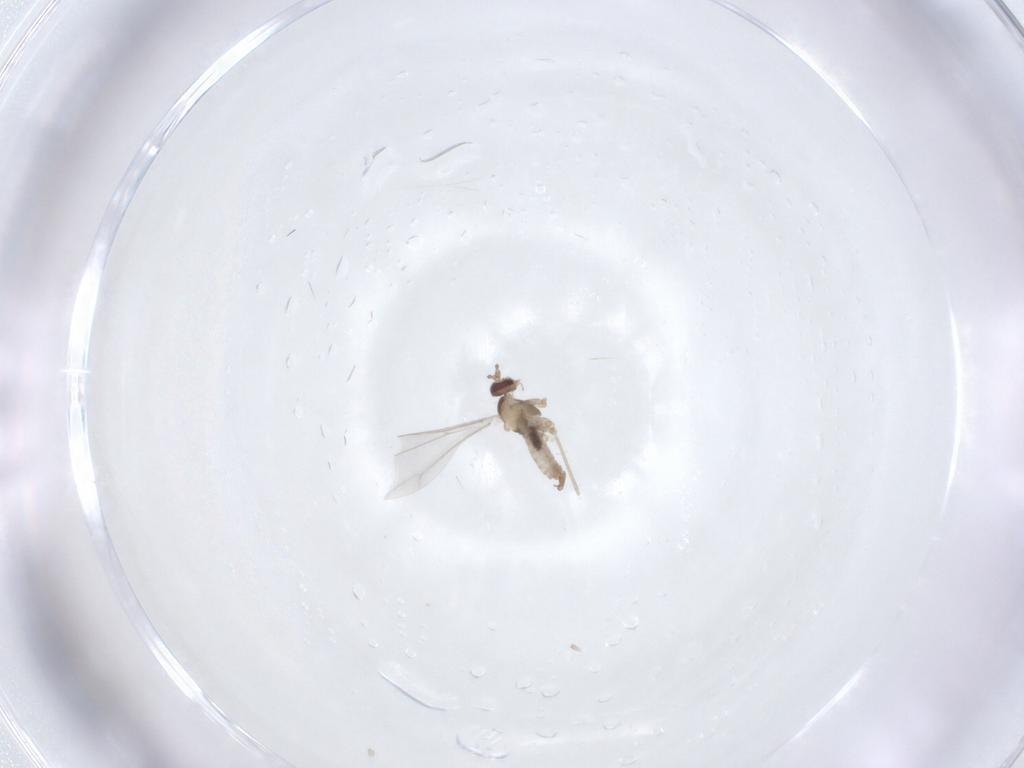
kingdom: Animalia
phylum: Arthropoda
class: Insecta
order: Diptera
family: Cecidomyiidae
